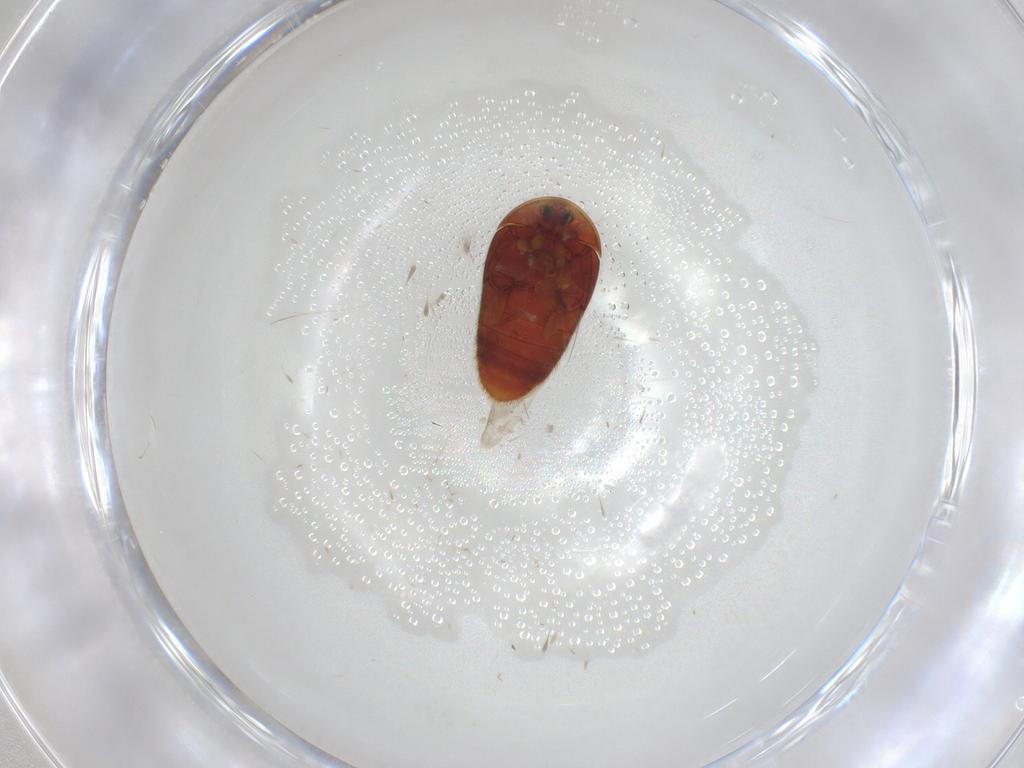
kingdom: Animalia
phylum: Arthropoda
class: Insecta
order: Coleoptera
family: Corylophidae
